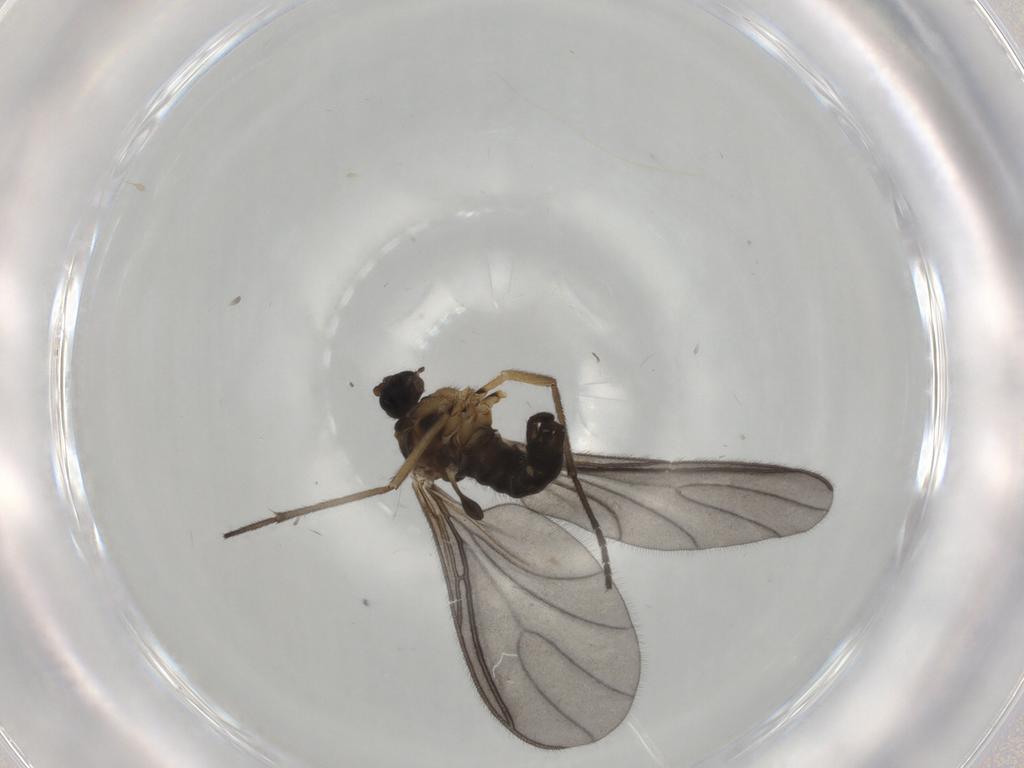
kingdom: Animalia
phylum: Arthropoda
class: Insecta
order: Diptera
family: Sciaridae
